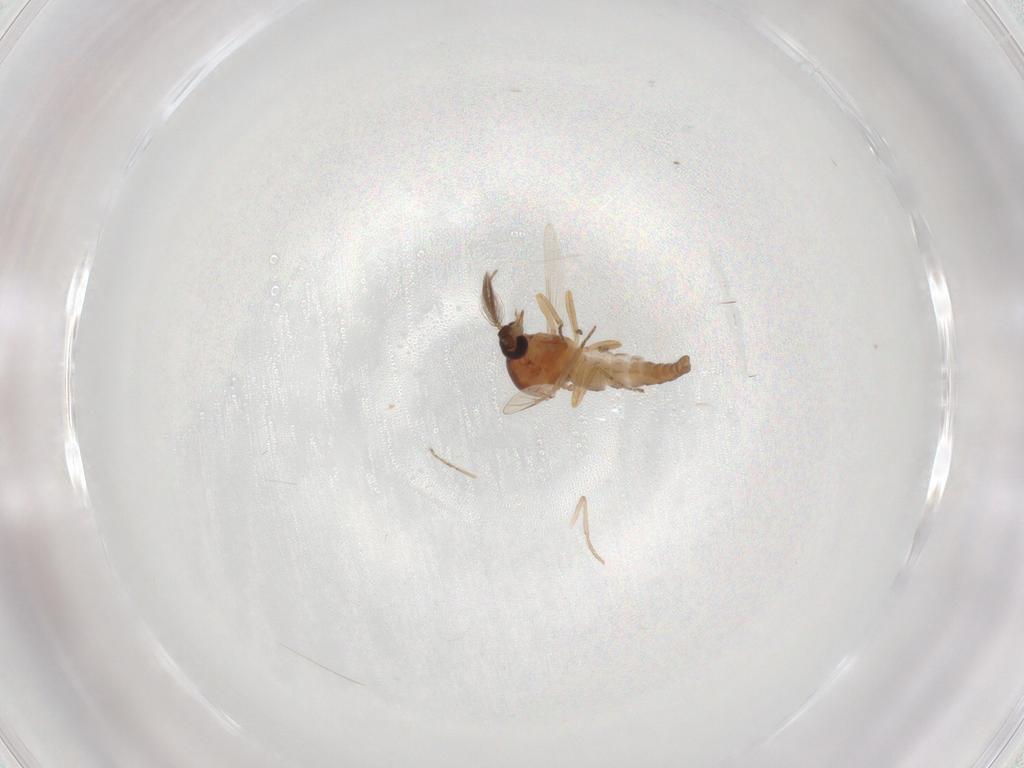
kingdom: Animalia
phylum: Arthropoda
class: Insecta
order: Diptera
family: Ceratopogonidae
